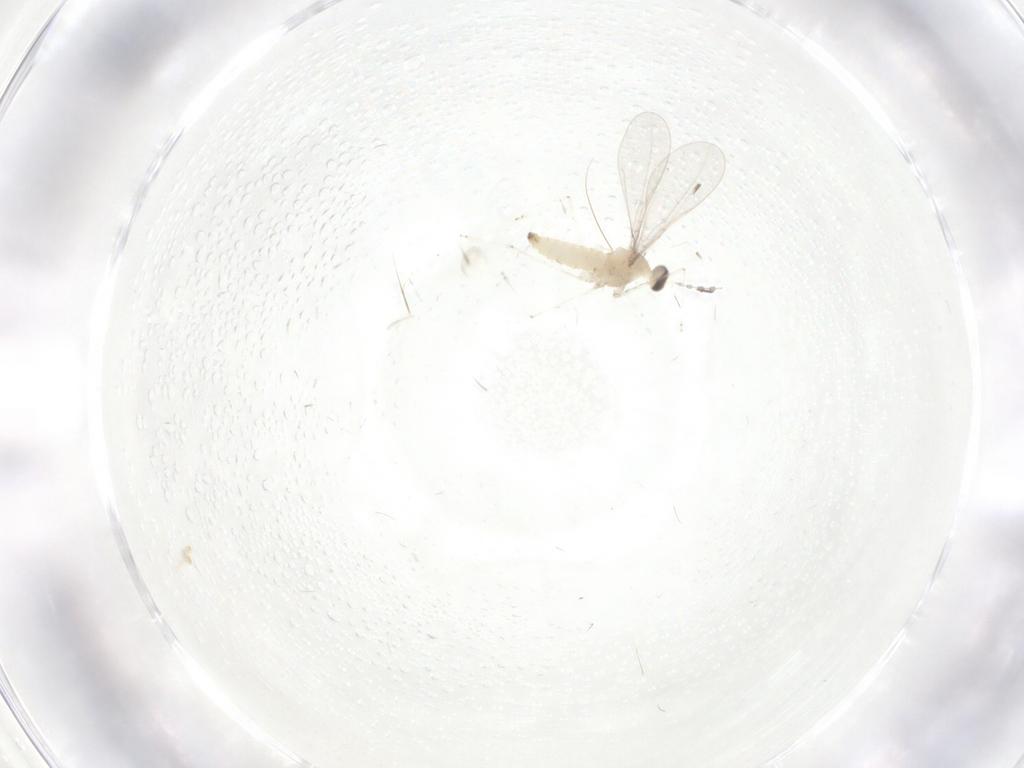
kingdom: Animalia
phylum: Arthropoda
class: Insecta
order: Diptera
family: Cecidomyiidae
